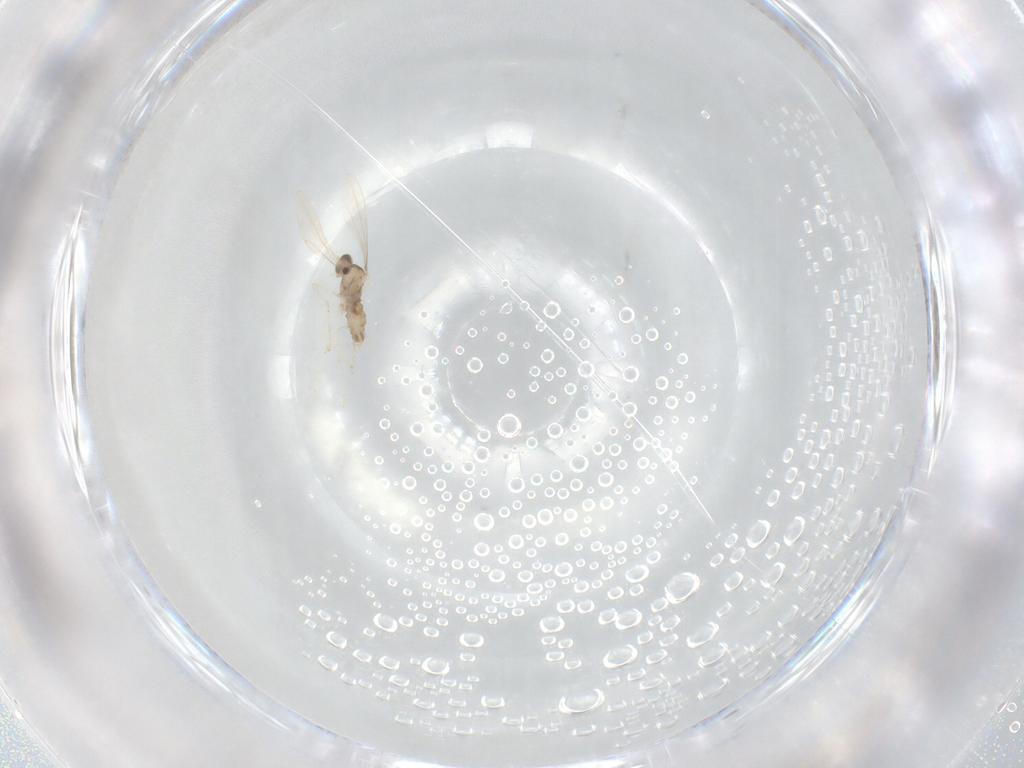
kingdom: Animalia
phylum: Arthropoda
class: Insecta
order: Diptera
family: Cecidomyiidae
